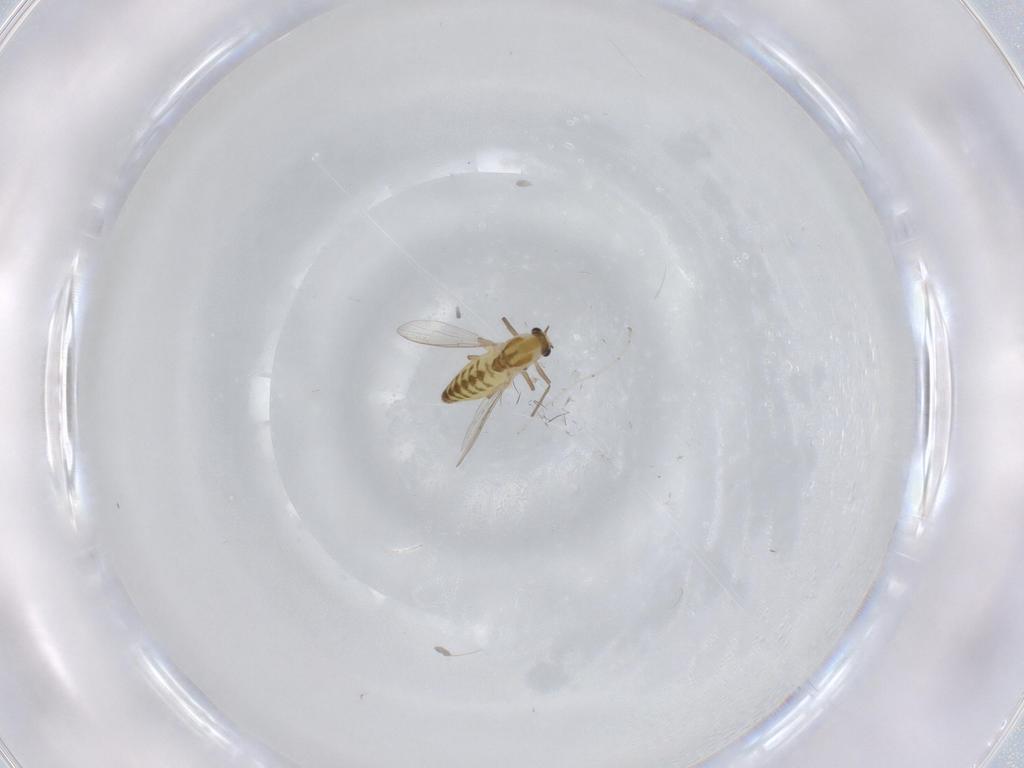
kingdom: Animalia
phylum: Arthropoda
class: Insecta
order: Diptera
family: Chironomidae
